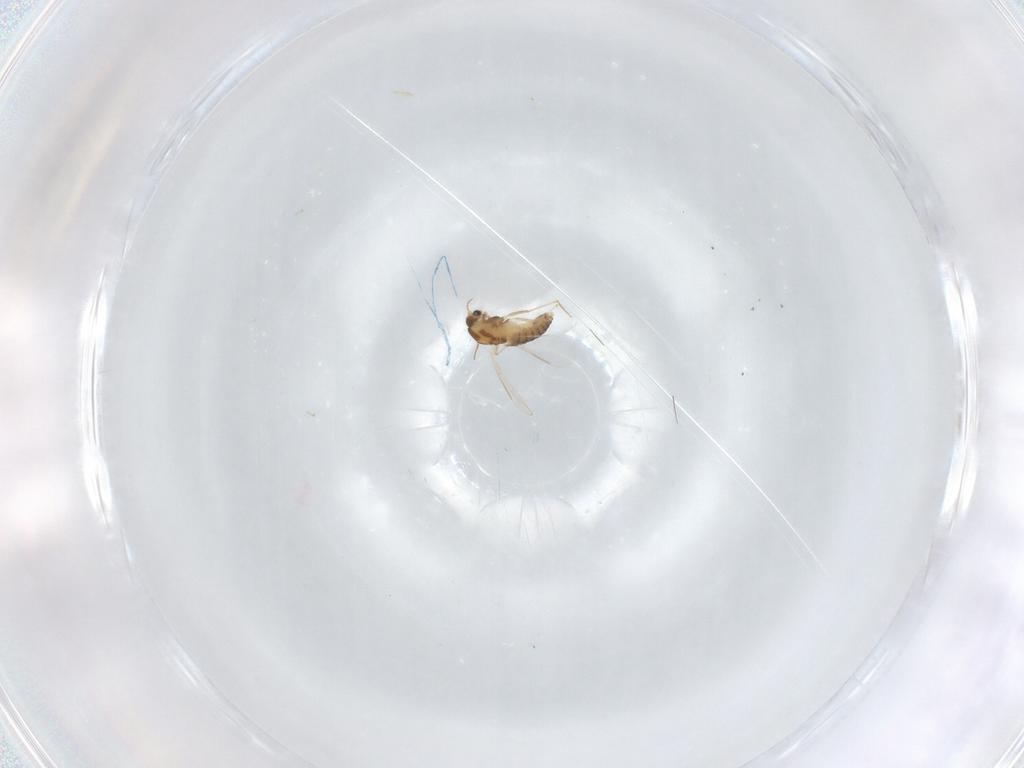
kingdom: Animalia
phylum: Arthropoda
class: Insecta
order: Diptera
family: Chironomidae
